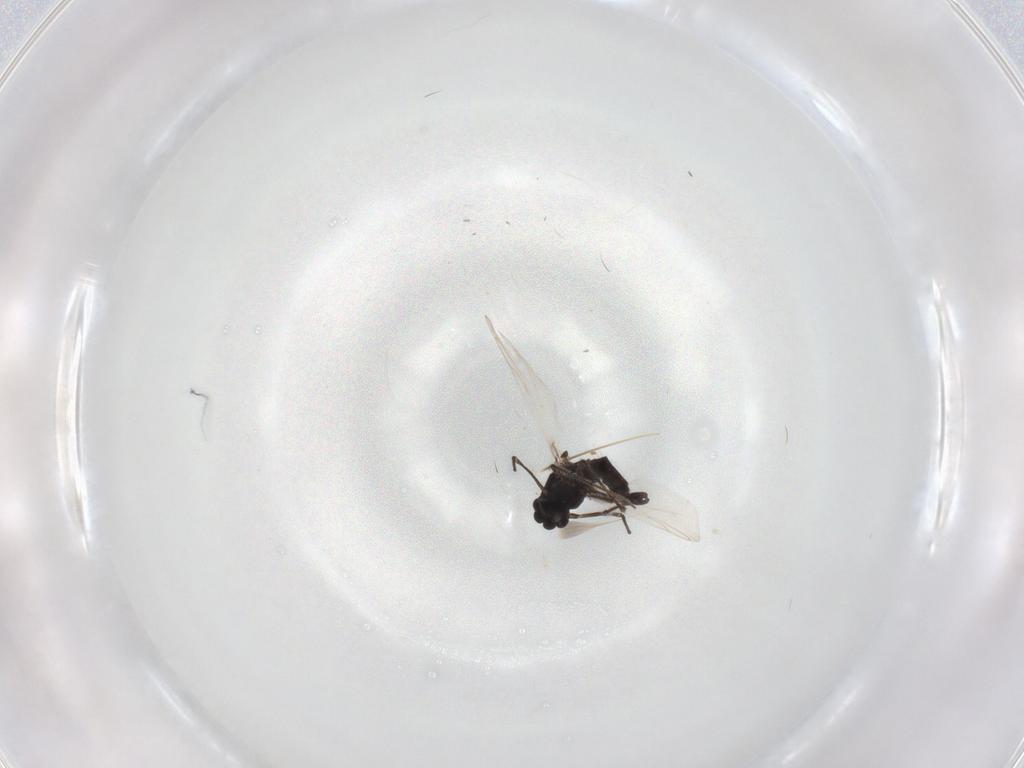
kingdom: Animalia
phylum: Arthropoda
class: Insecta
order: Diptera
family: Chironomidae
